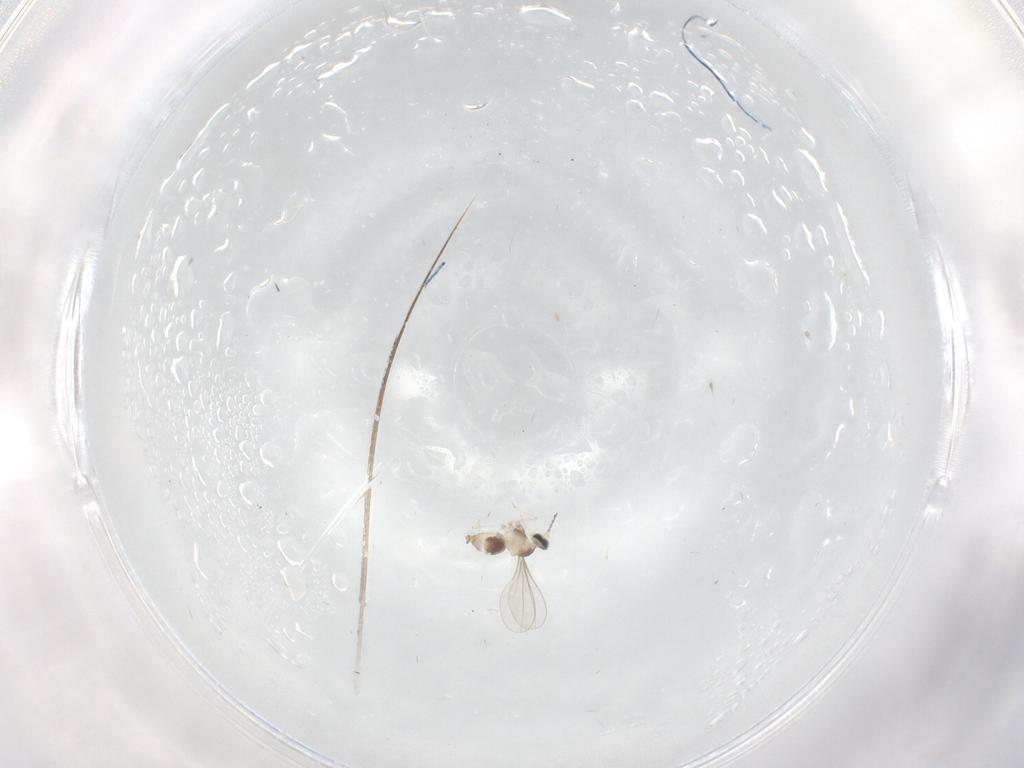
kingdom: Animalia
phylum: Arthropoda
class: Insecta
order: Diptera
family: Cecidomyiidae
